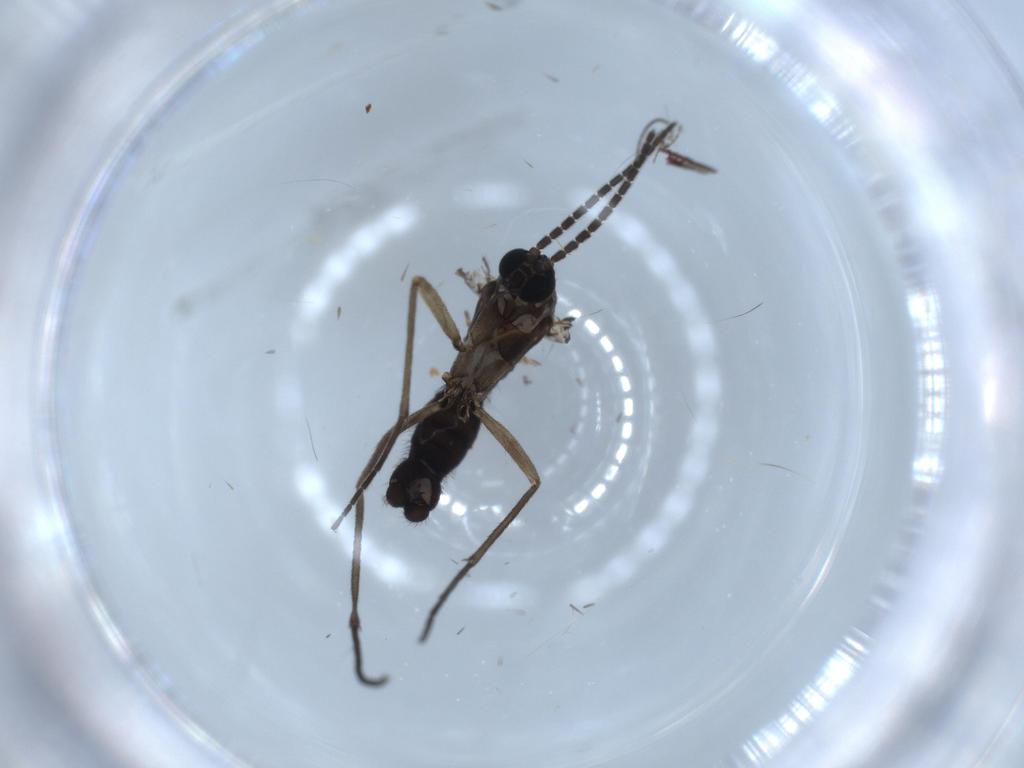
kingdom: Animalia
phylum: Arthropoda
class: Insecta
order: Diptera
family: Sciaridae
